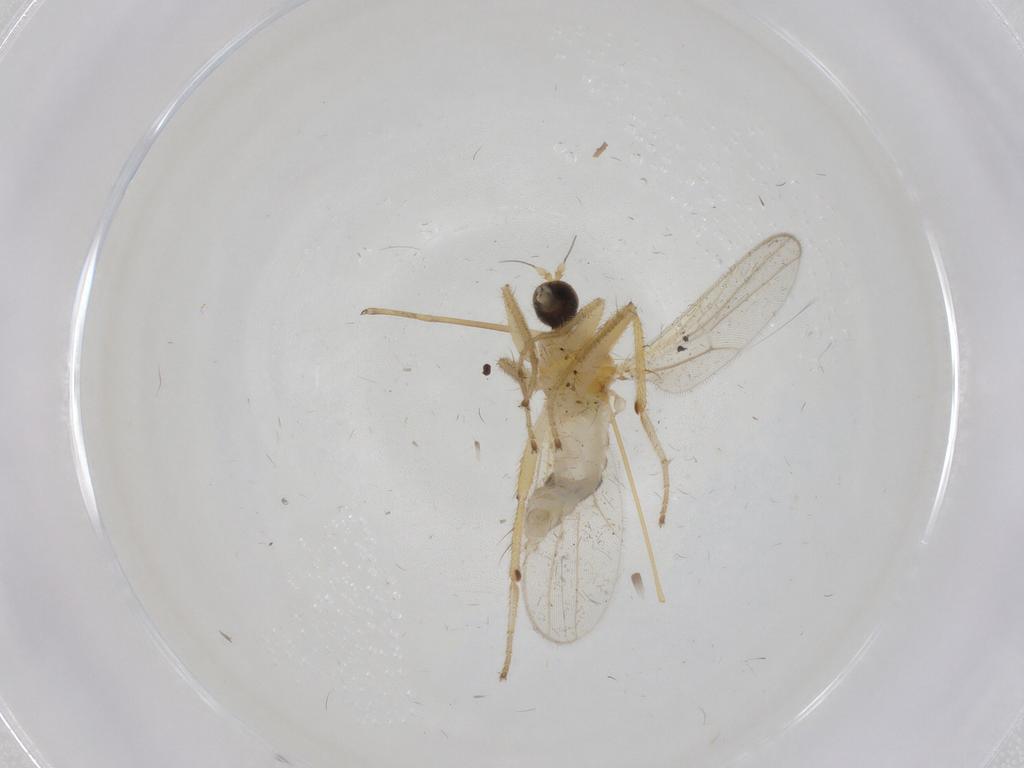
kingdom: Animalia
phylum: Arthropoda
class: Insecta
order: Diptera
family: Hybotidae
